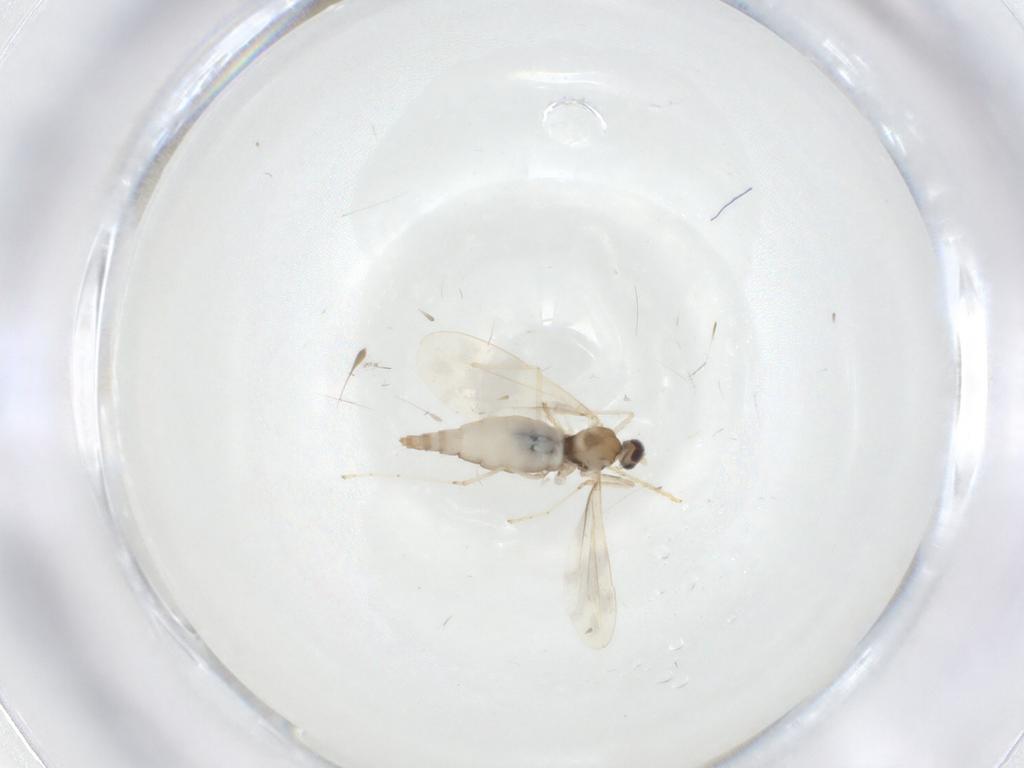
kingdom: Animalia
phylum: Arthropoda
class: Insecta
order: Diptera
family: Cecidomyiidae
